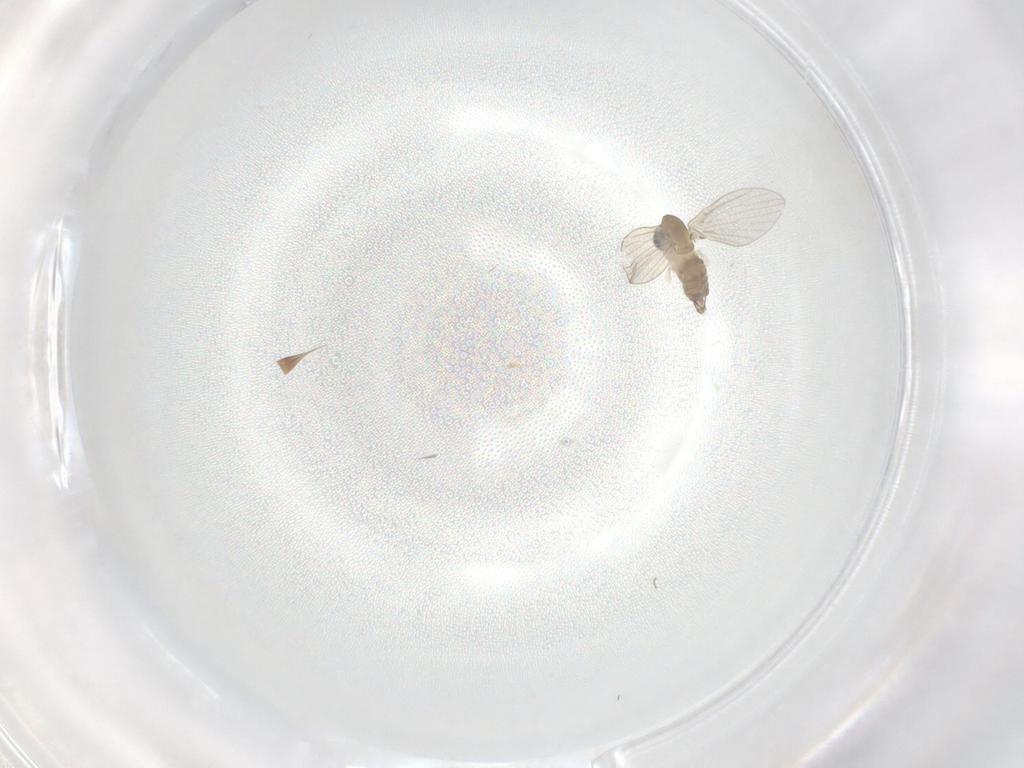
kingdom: Animalia
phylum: Arthropoda
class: Insecta
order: Diptera
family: Psychodidae
